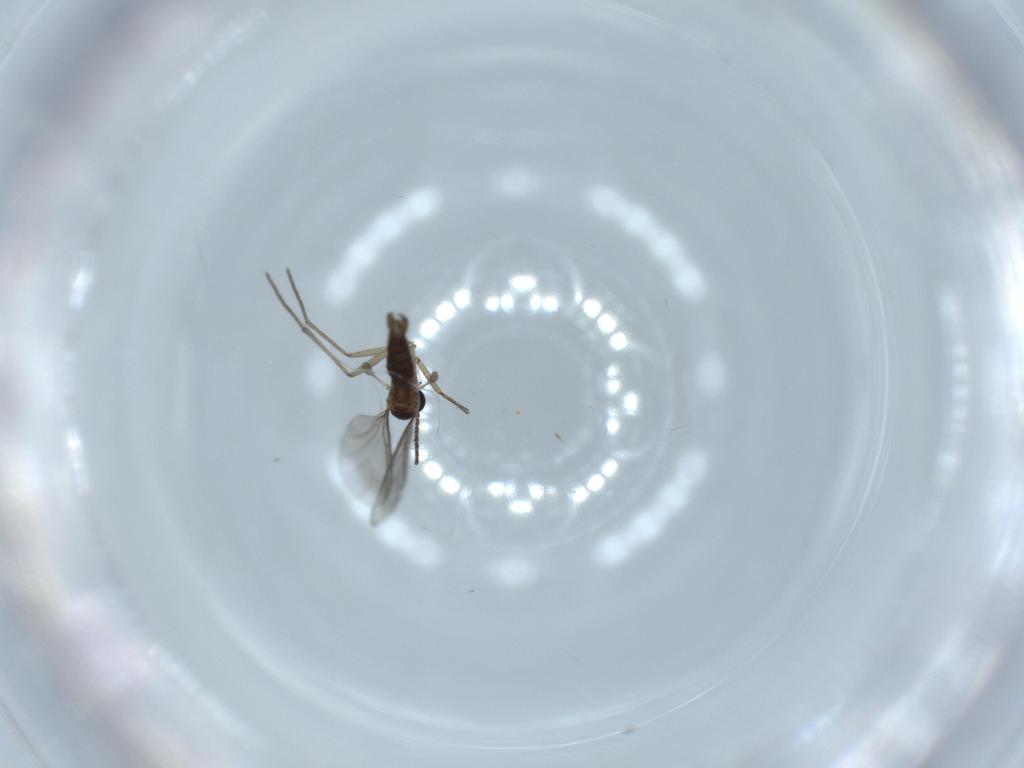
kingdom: Animalia
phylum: Arthropoda
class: Insecta
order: Diptera
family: Sciaridae
